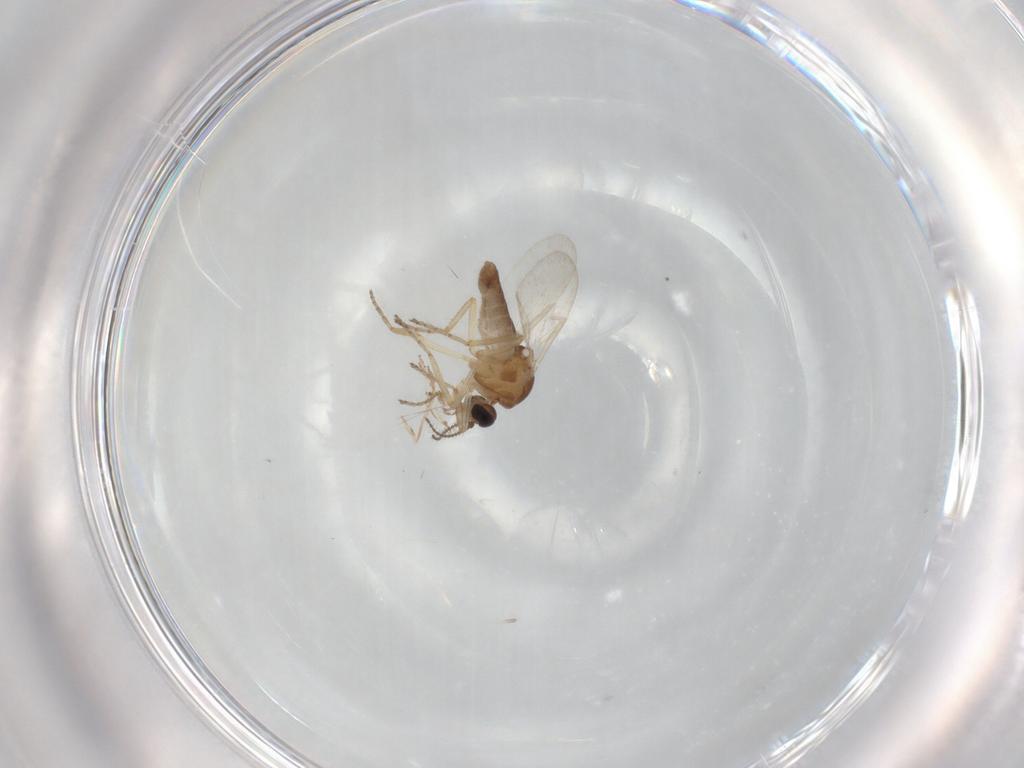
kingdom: Animalia
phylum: Arthropoda
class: Insecta
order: Diptera
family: Ceratopogonidae
